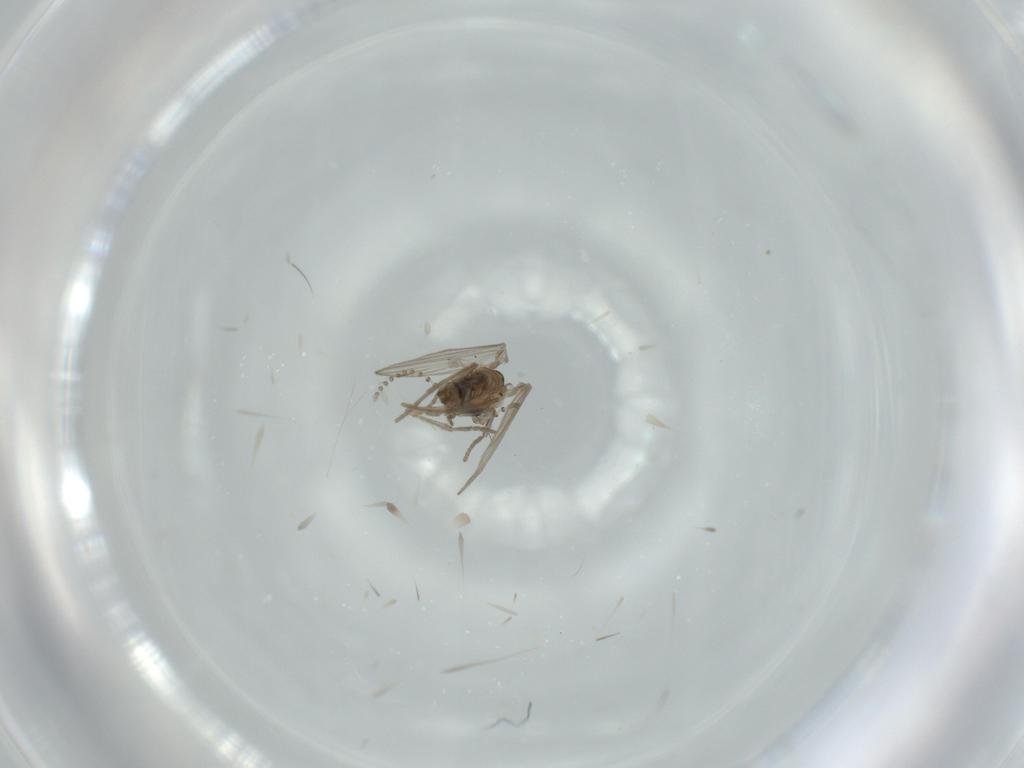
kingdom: Animalia
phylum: Arthropoda
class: Insecta
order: Diptera
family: Psychodidae
